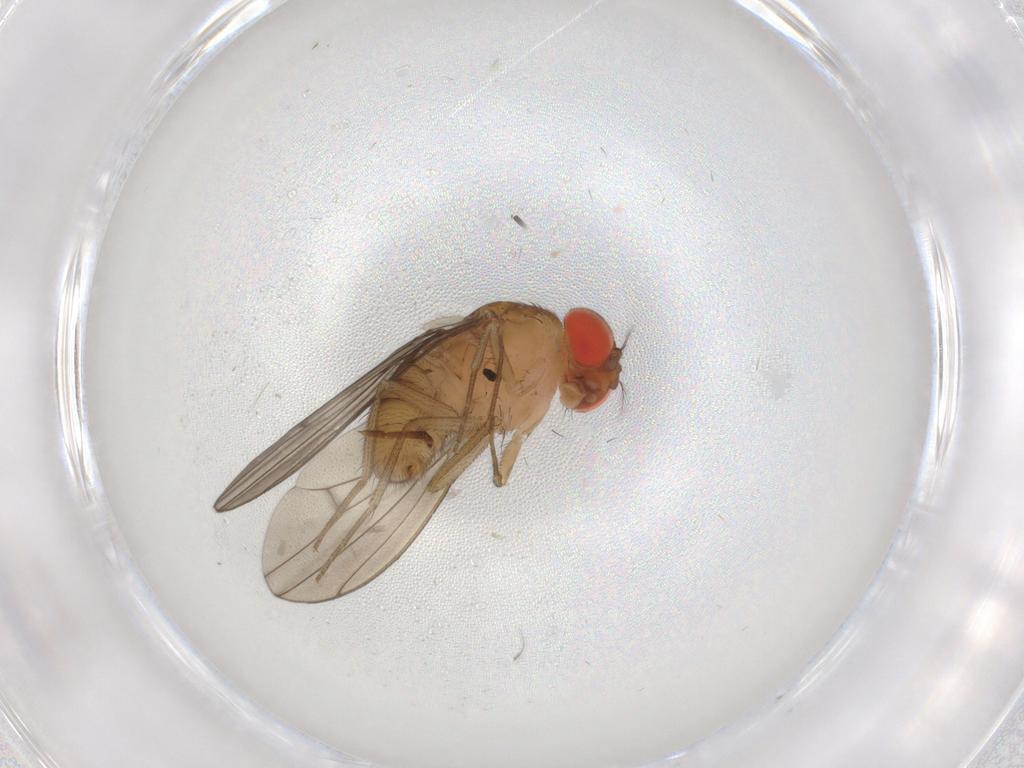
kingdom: Animalia
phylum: Arthropoda
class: Insecta
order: Diptera
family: Drosophilidae
